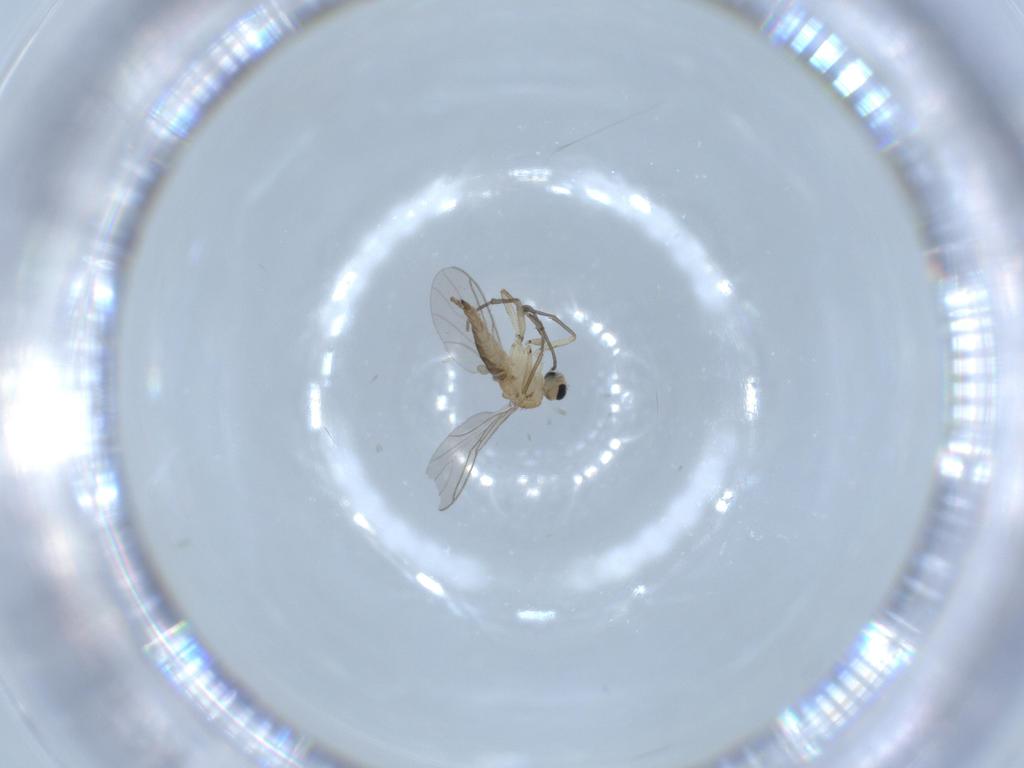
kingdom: Animalia
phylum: Arthropoda
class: Insecta
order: Diptera
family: Sciaridae
